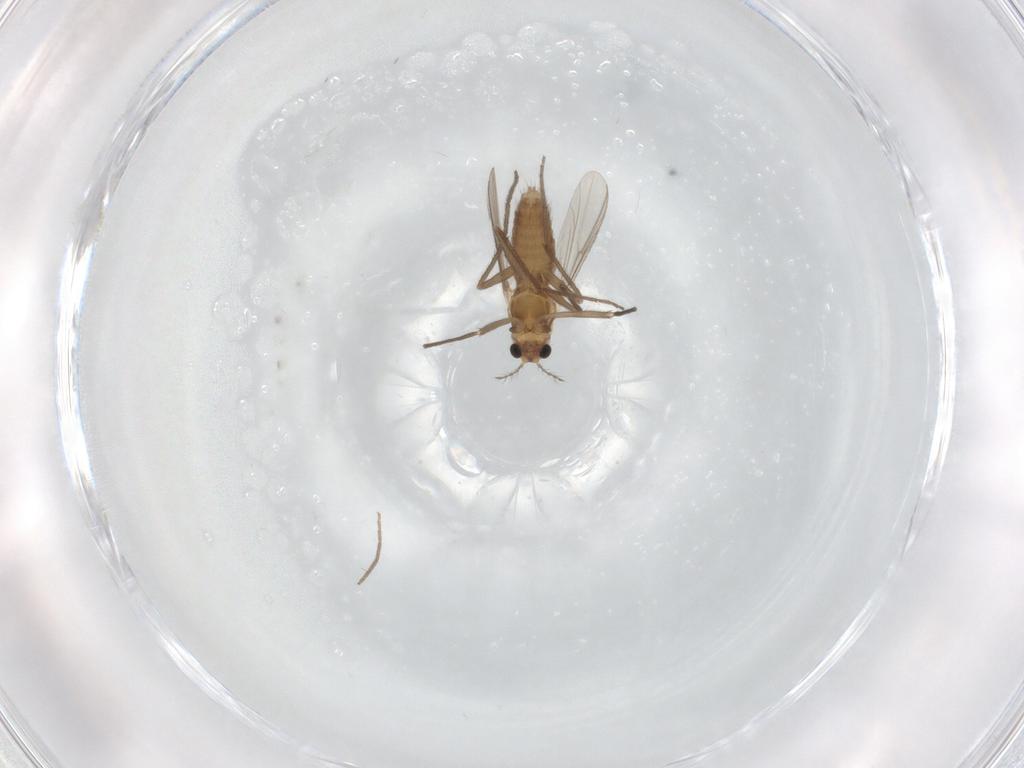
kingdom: Animalia
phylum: Arthropoda
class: Insecta
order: Diptera
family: Chironomidae
